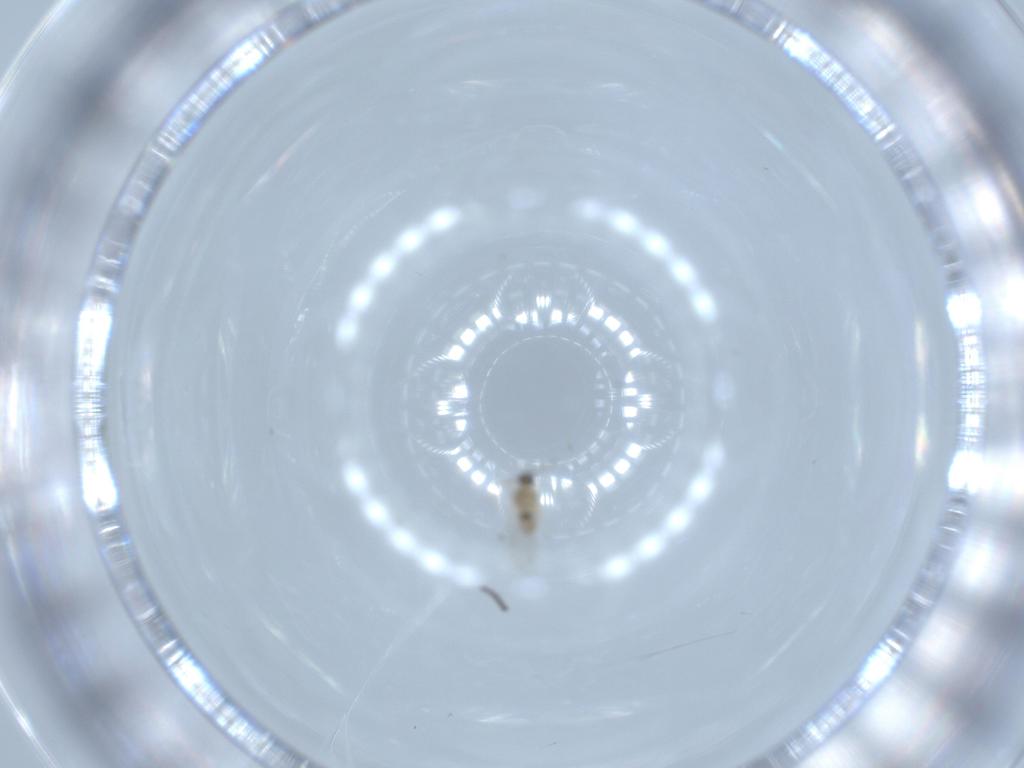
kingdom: Animalia
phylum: Arthropoda
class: Insecta
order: Diptera
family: Cecidomyiidae
